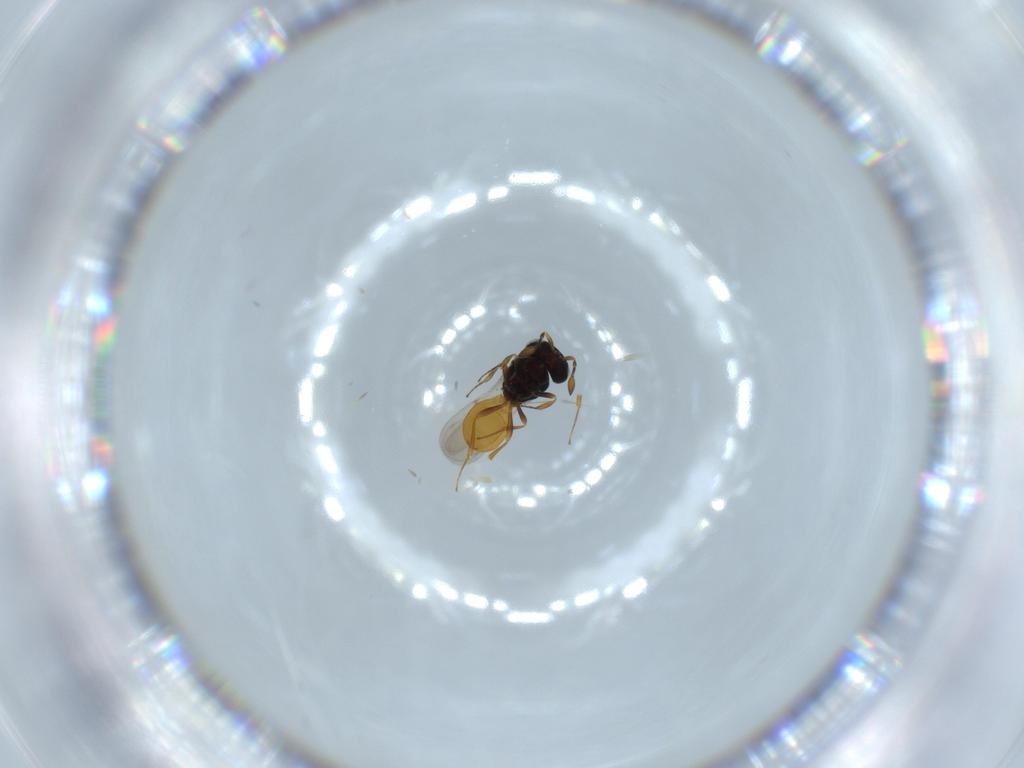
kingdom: Animalia
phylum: Arthropoda
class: Insecta
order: Hymenoptera
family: Scelionidae
